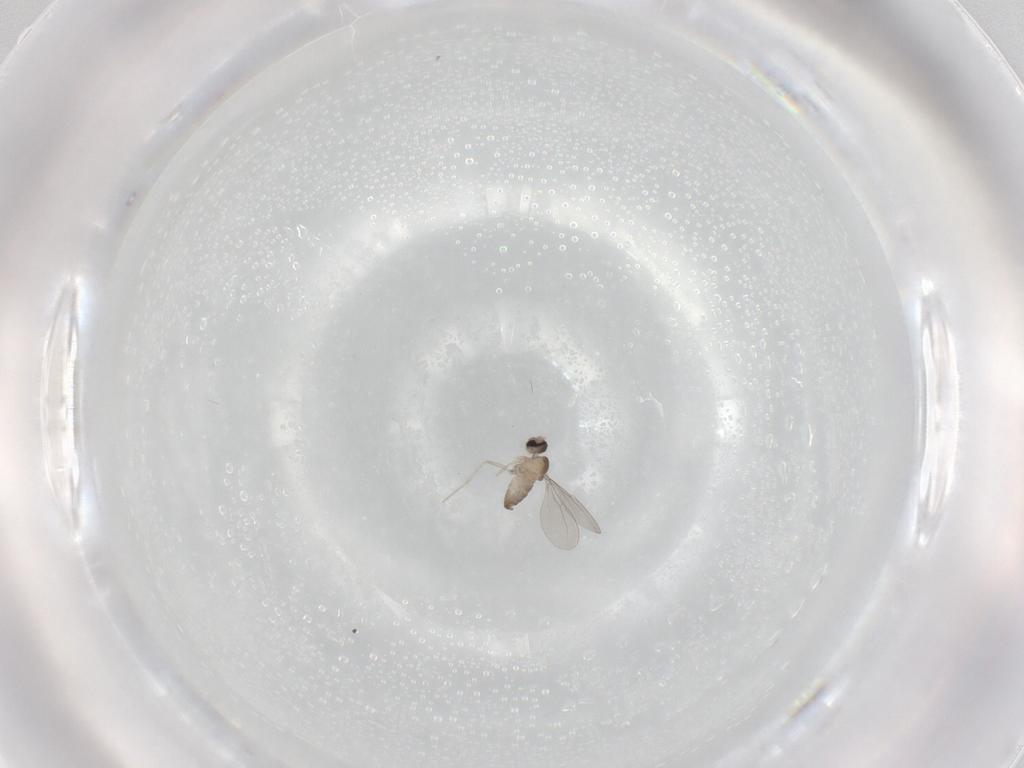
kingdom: Animalia
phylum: Arthropoda
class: Insecta
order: Diptera
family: Cecidomyiidae
